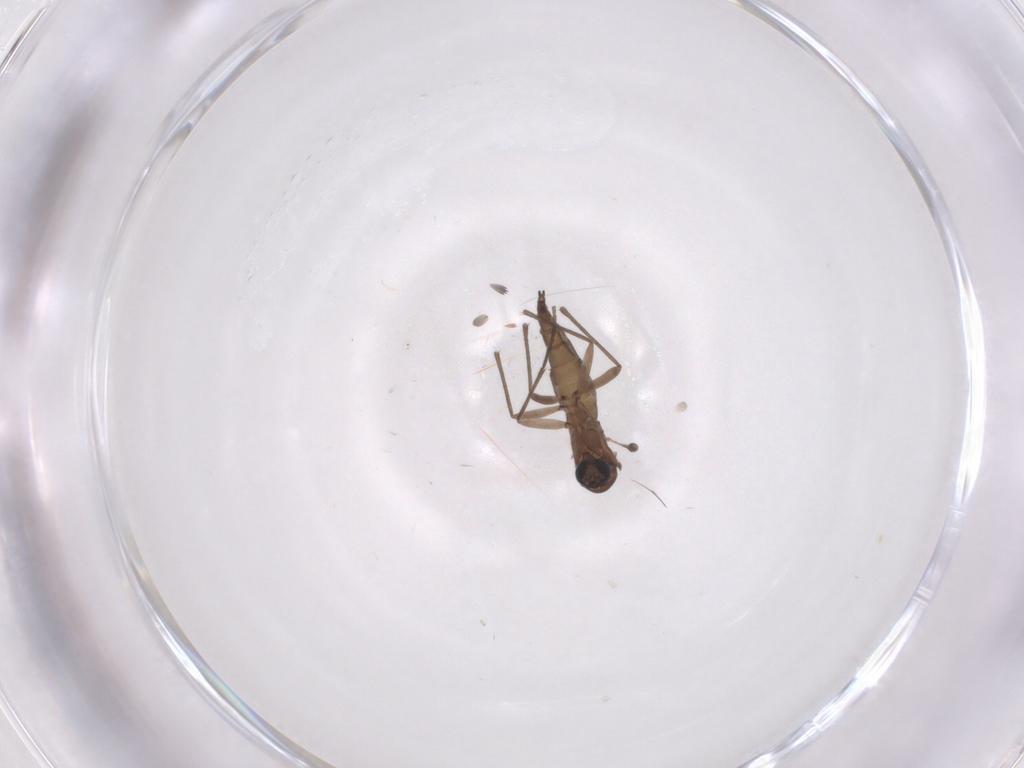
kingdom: Animalia
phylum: Arthropoda
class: Insecta
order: Diptera
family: Sciaridae
